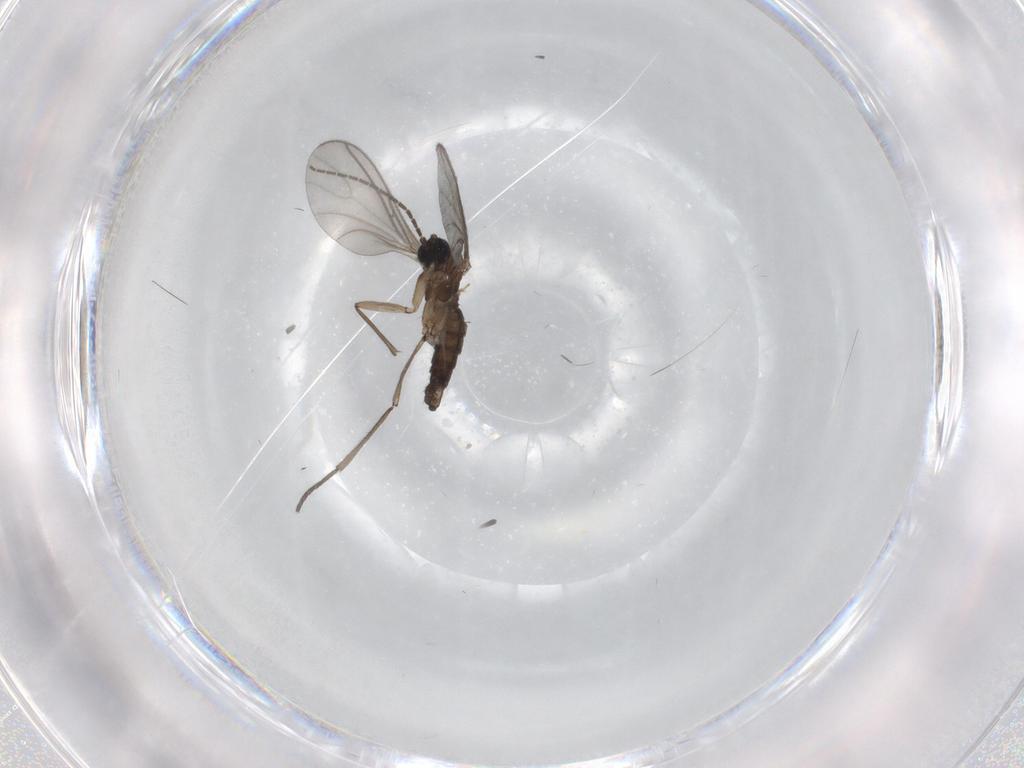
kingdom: Animalia
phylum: Arthropoda
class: Insecta
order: Diptera
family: Sciaridae
